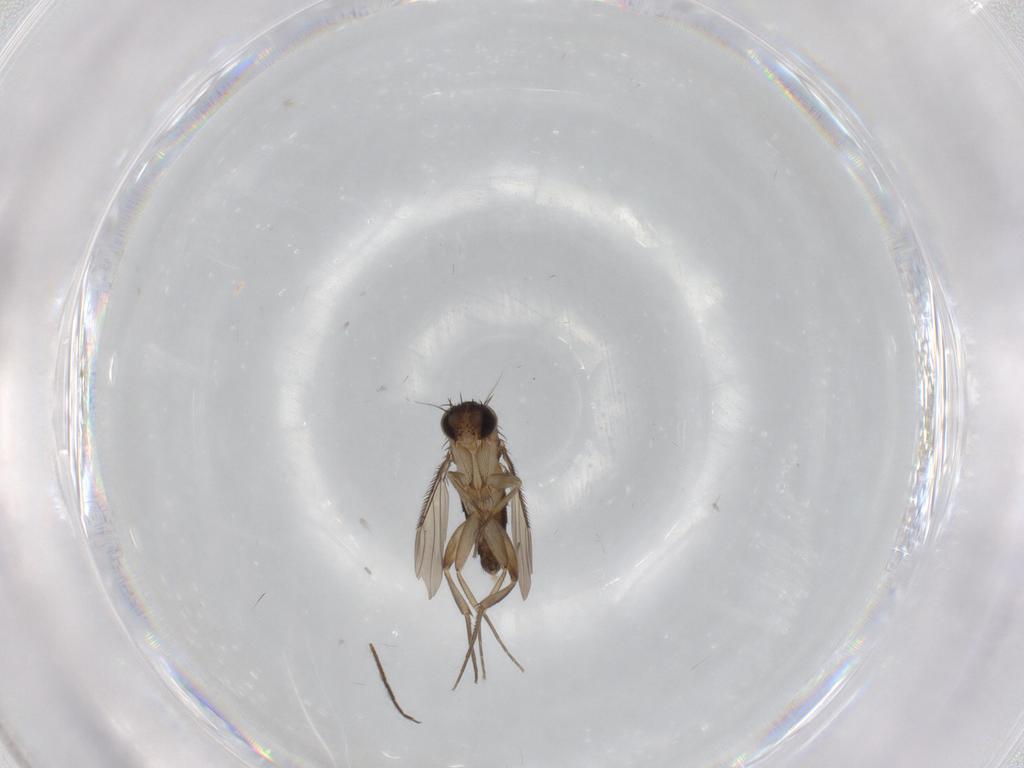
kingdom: Animalia
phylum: Arthropoda
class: Insecta
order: Diptera
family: Phoridae
